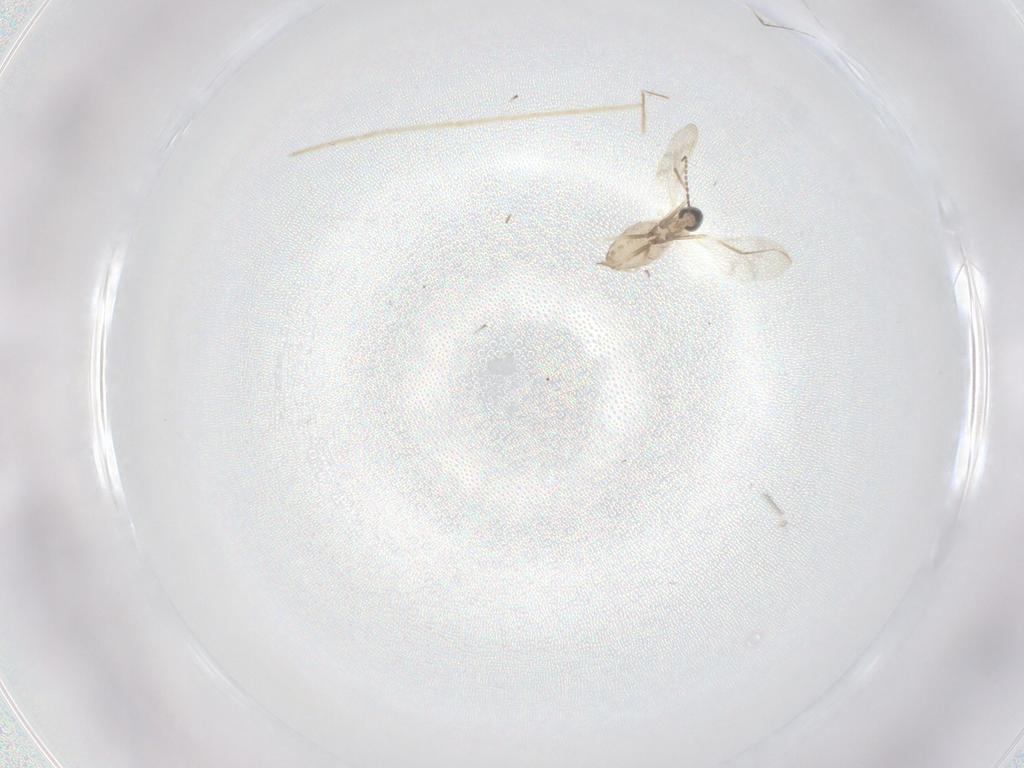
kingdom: Animalia
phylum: Arthropoda
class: Insecta
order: Diptera
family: Cecidomyiidae
